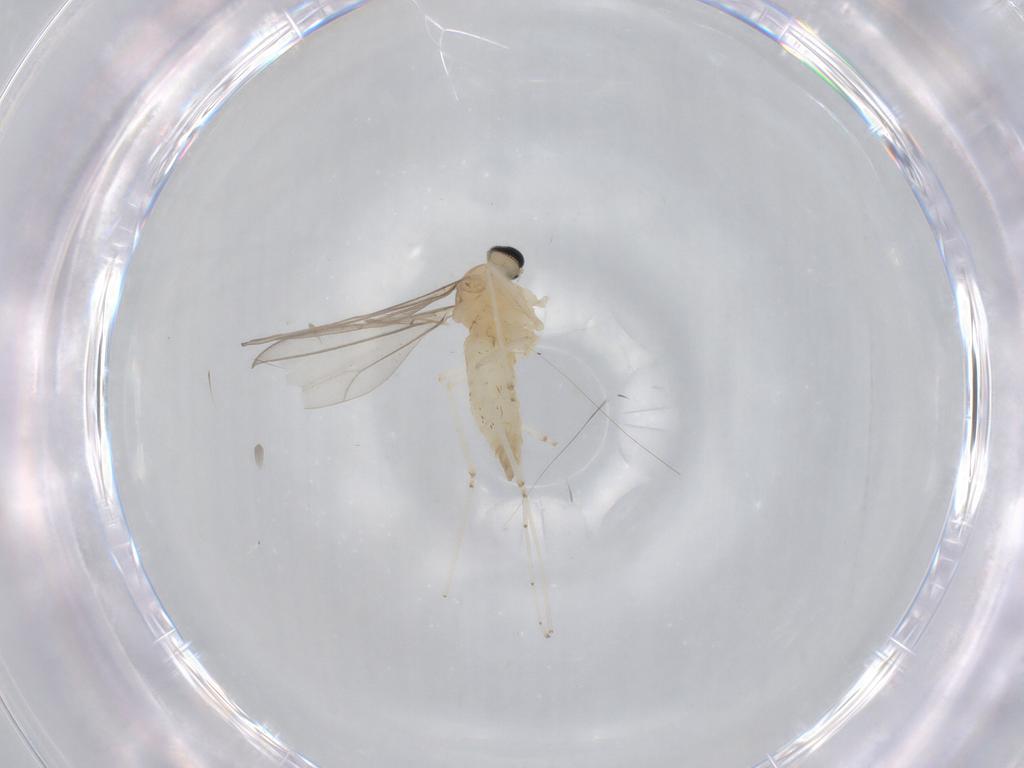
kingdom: Animalia
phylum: Arthropoda
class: Insecta
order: Diptera
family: Cecidomyiidae
